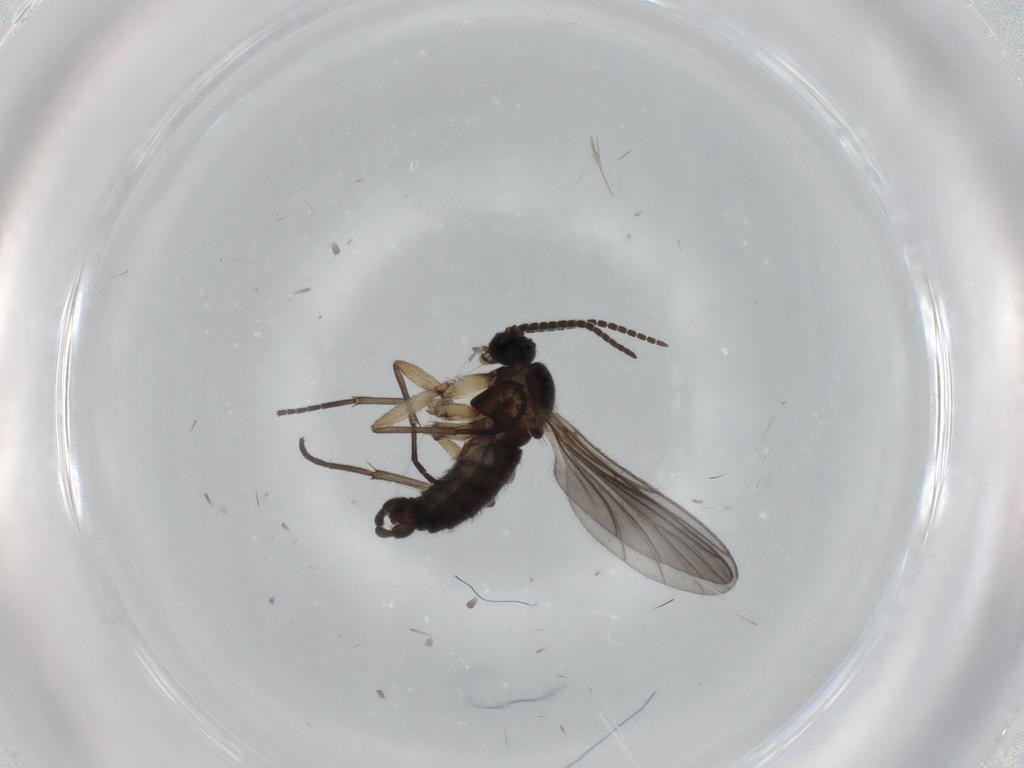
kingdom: Animalia
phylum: Arthropoda
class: Insecta
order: Diptera
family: Sciaridae
